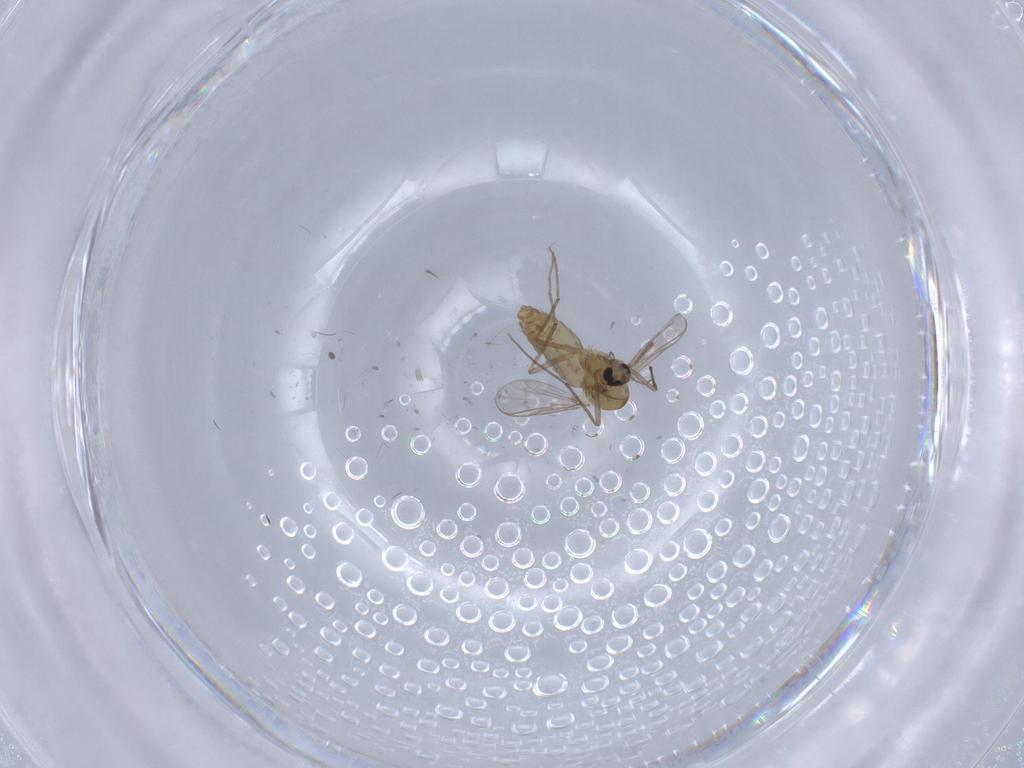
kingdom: Animalia
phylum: Arthropoda
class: Insecta
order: Diptera
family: Chironomidae
